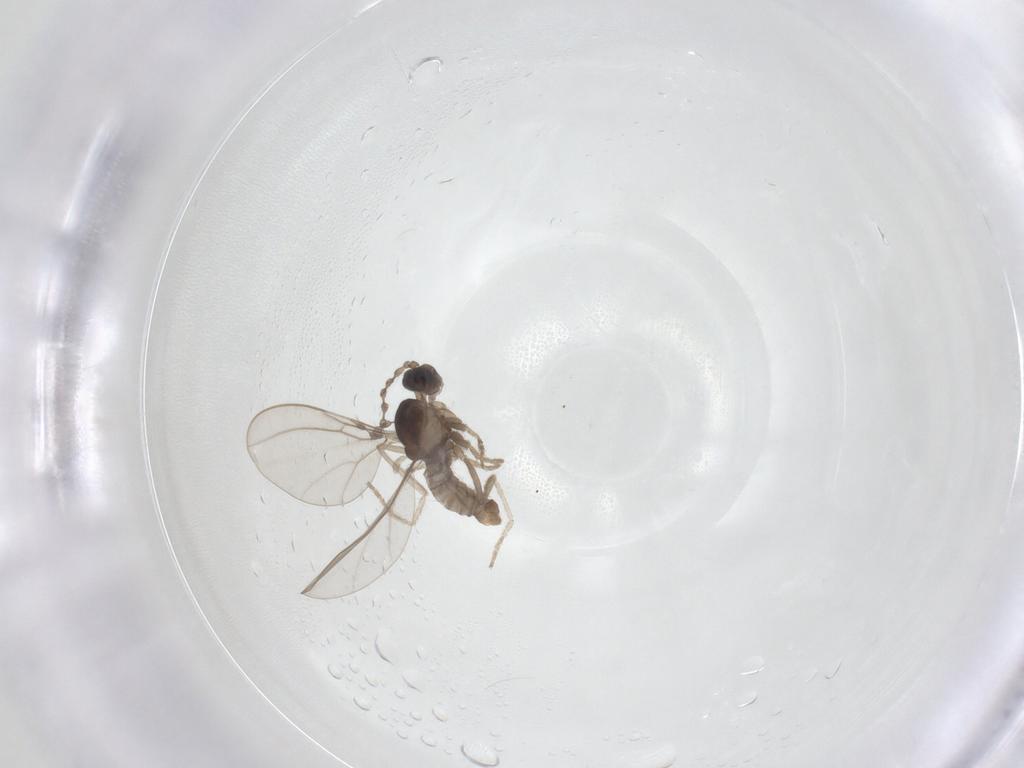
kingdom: Animalia
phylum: Arthropoda
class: Insecta
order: Diptera
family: Cecidomyiidae
